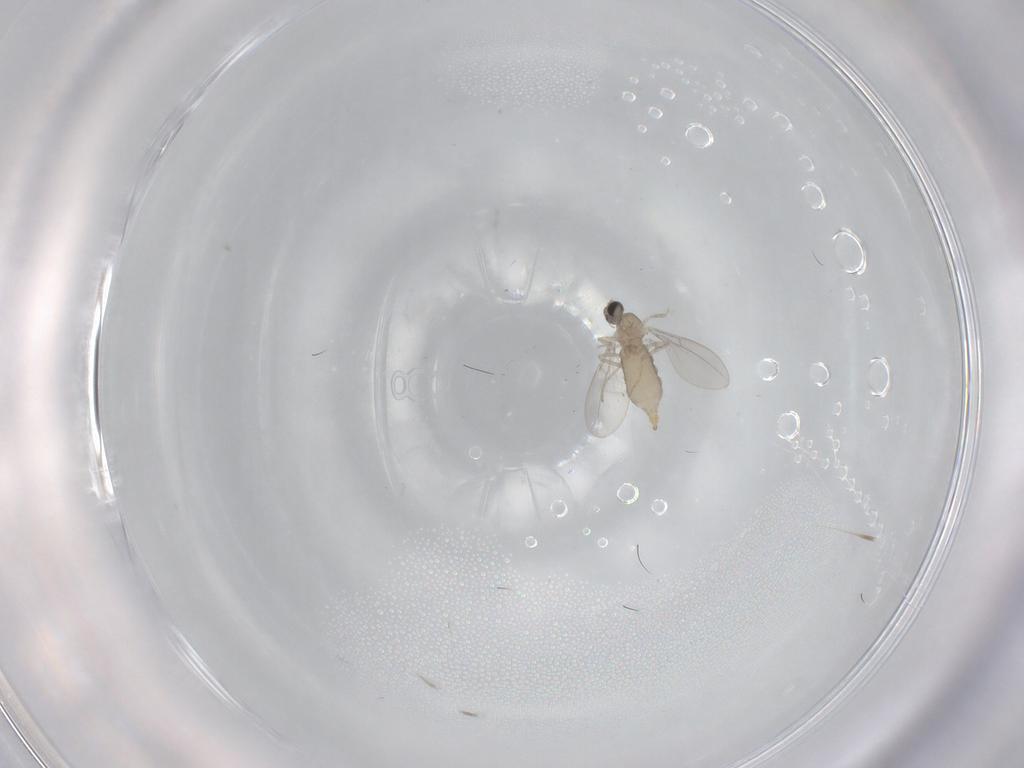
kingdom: Animalia
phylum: Arthropoda
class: Insecta
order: Diptera
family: Cecidomyiidae
